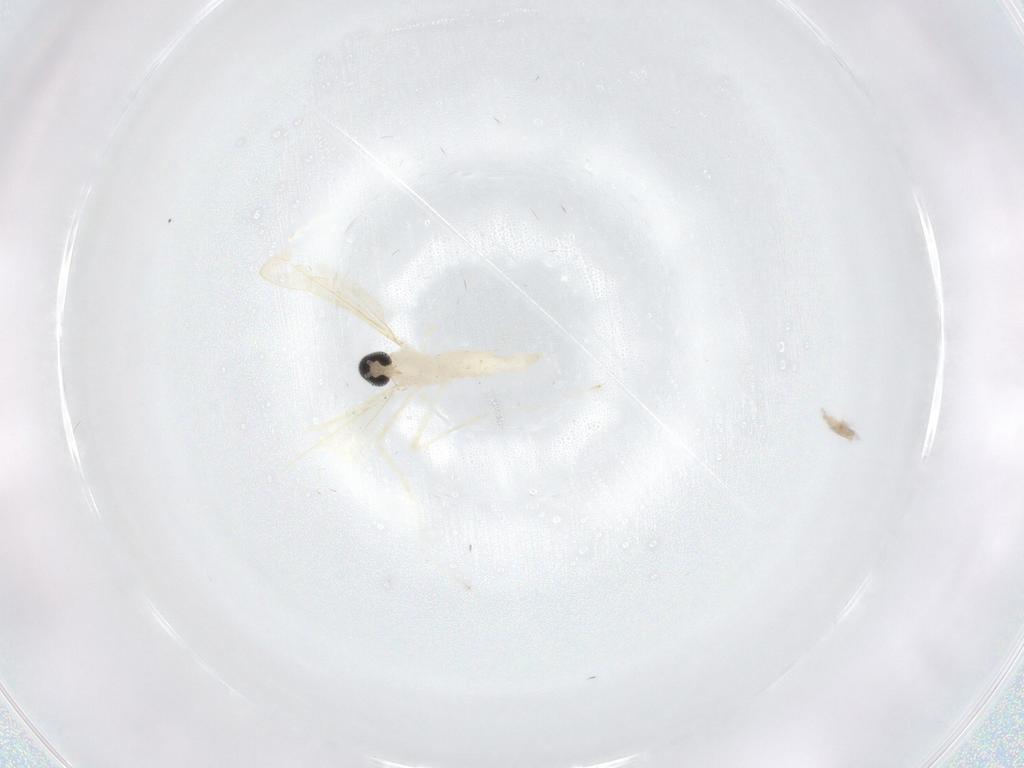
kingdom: Animalia
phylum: Arthropoda
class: Insecta
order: Diptera
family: Cecidomyiidae
